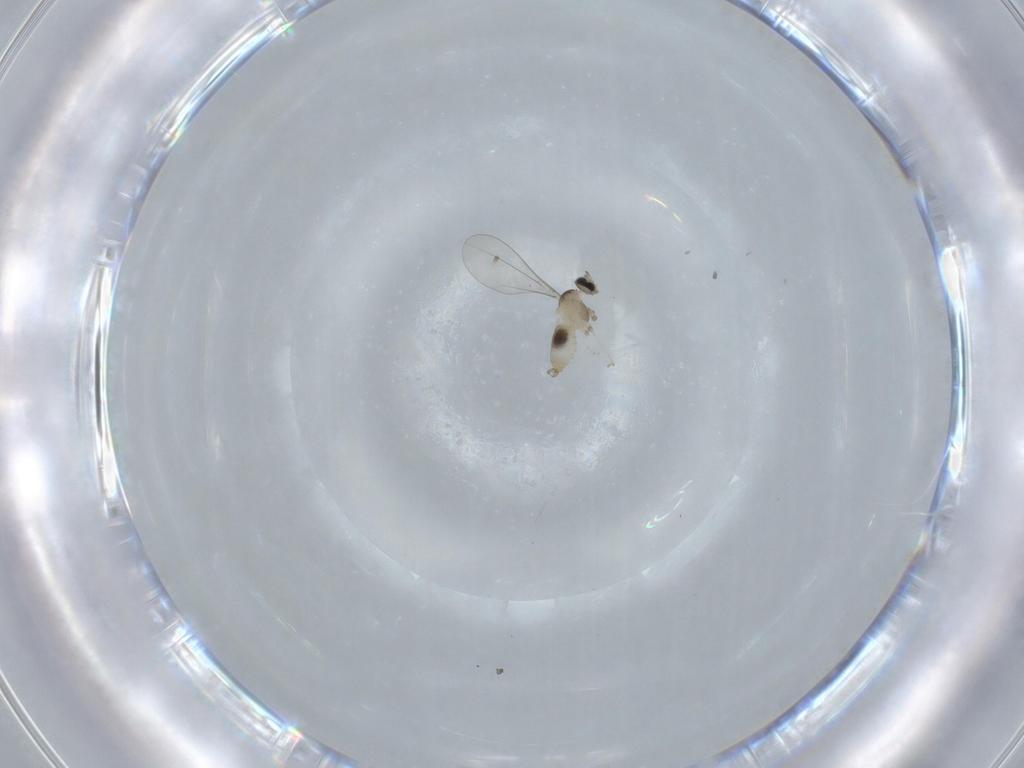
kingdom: Animalia
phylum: Arthropoda
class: Insecta
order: Diptera
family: Cecidomyiidae
